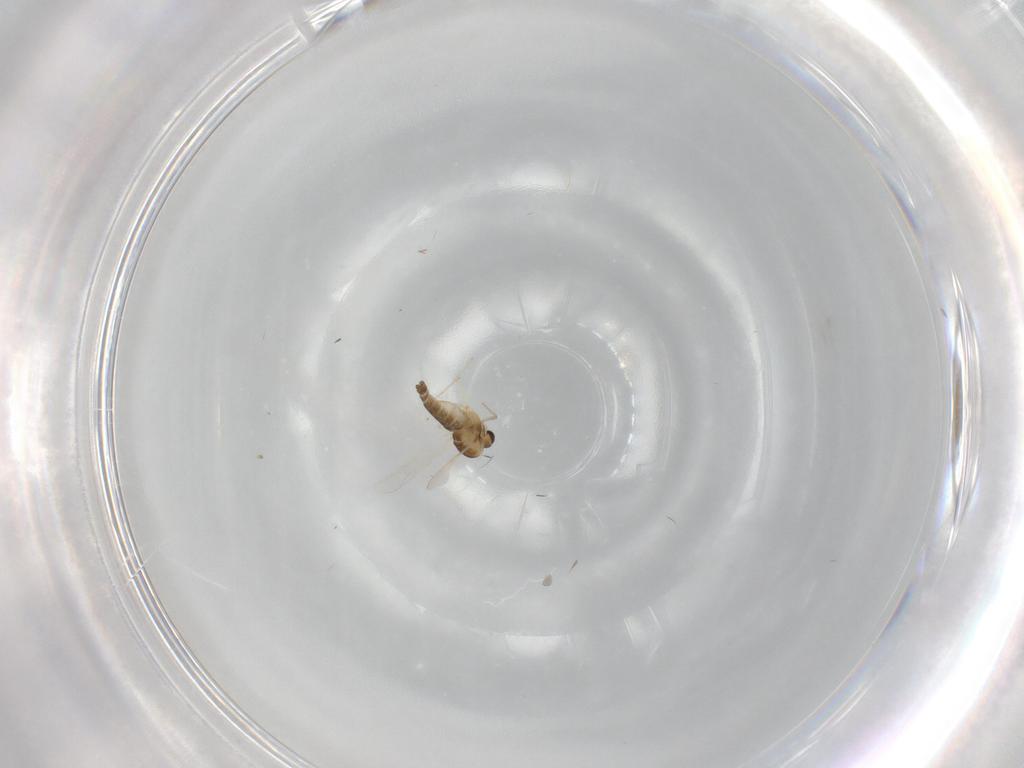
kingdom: Animalia
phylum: Arthropoda
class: Insecta
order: Diptera
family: Chironomidae
